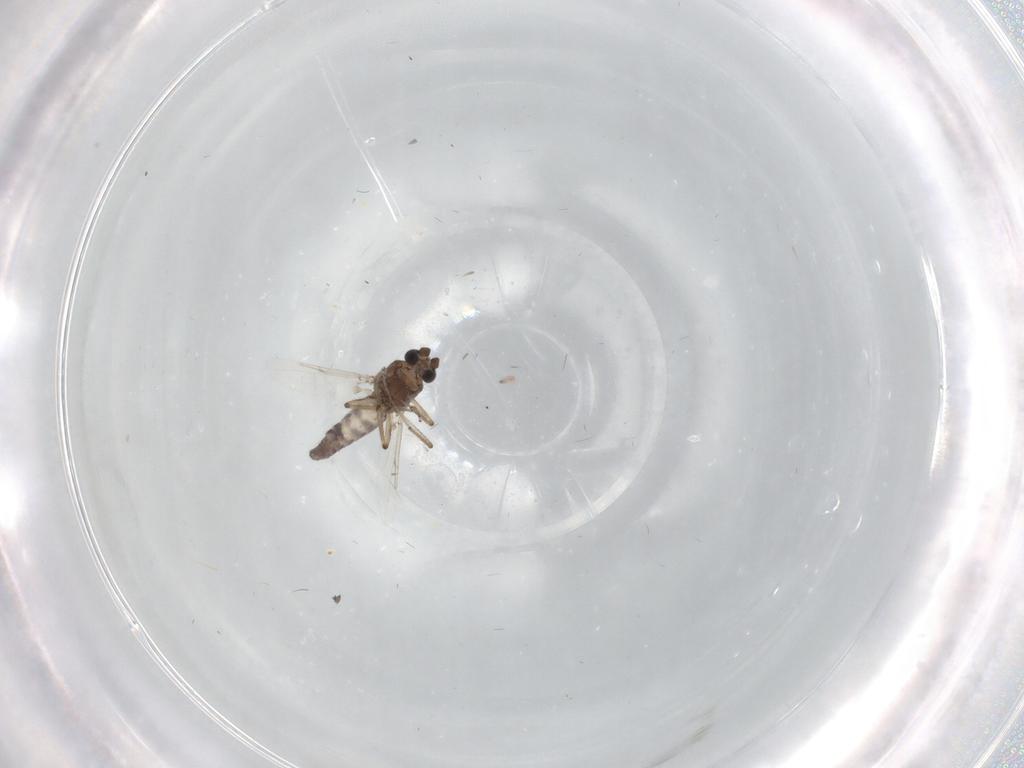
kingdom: Animalia
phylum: Arthropoda
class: Insecta
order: Diptera
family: Ceratopogonidae
